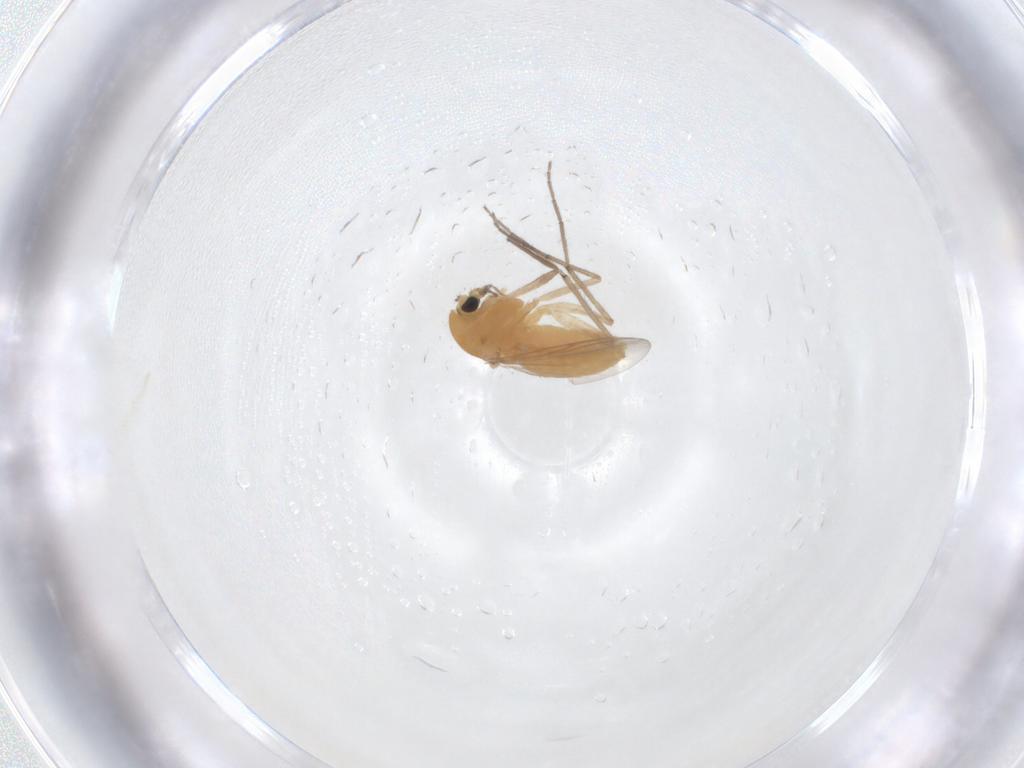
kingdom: Animalia
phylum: Arthropoda
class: Insecta
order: Diptera
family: Chironomidae
